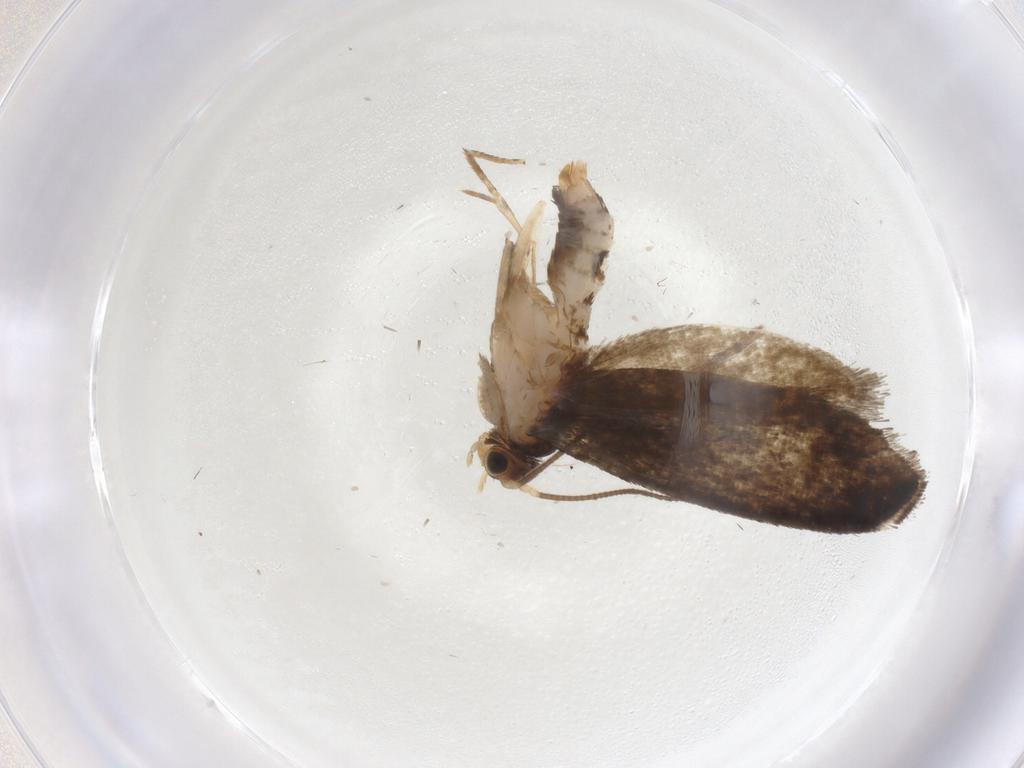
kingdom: Animalia
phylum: Arthropoda
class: Insecta
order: Lepidoptera
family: Tineidae
